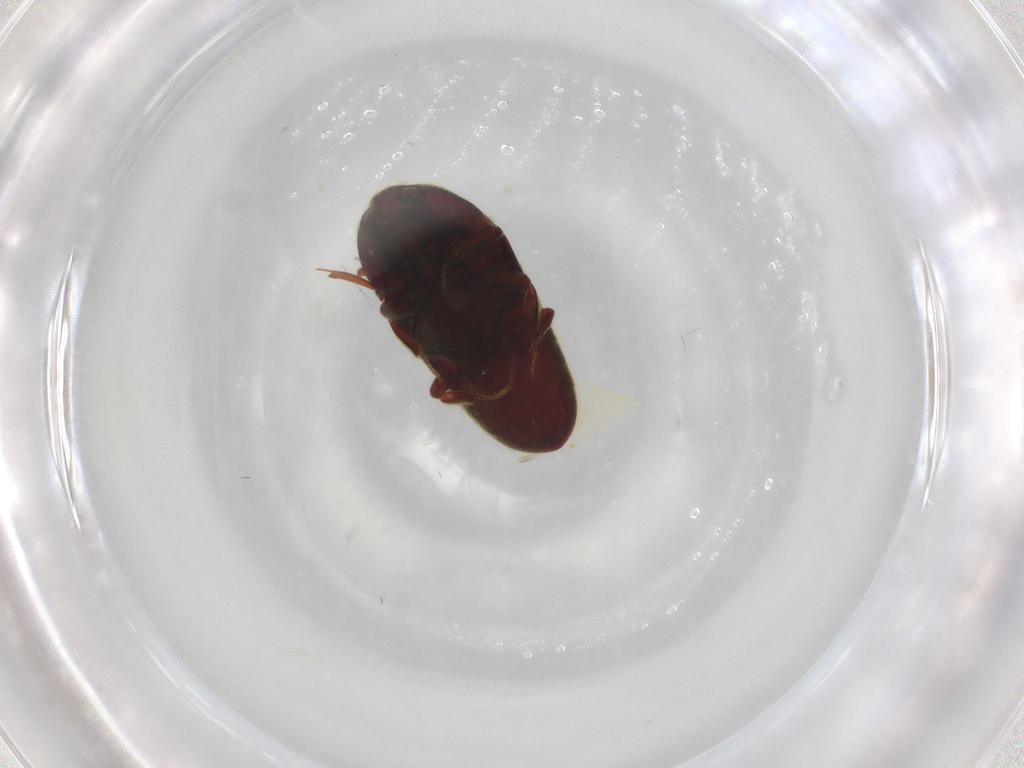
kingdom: Animalia
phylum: Arthropoda
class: Insecta
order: Coleoptera
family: Throscidae
